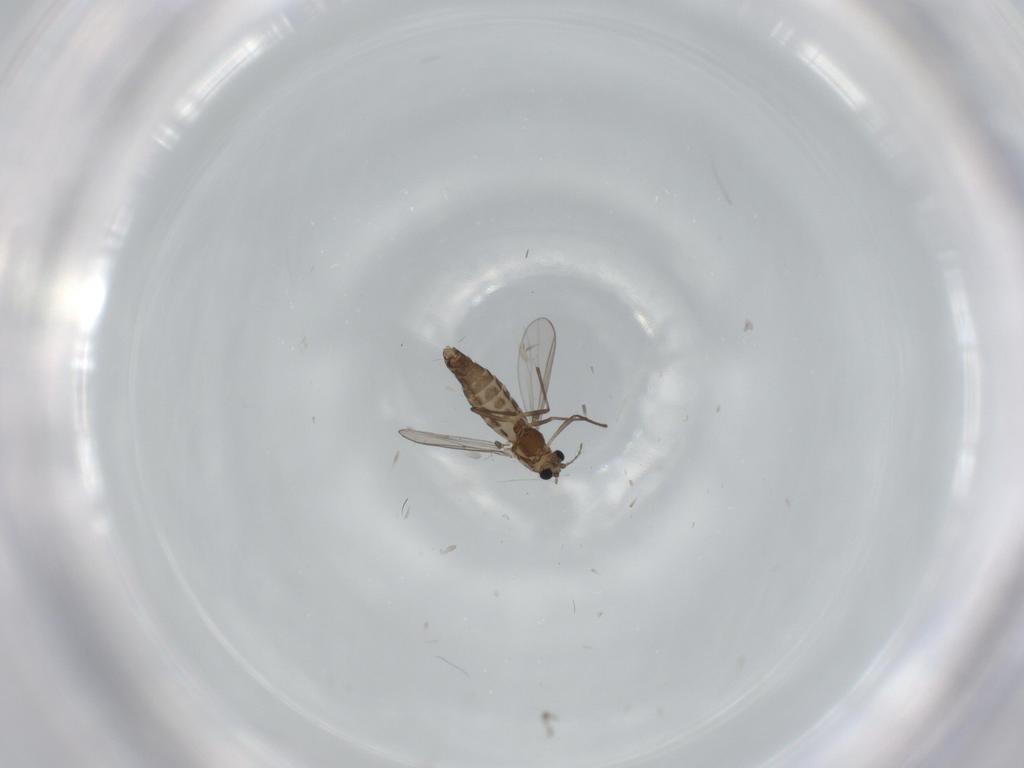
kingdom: Animalia
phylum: Arthropoda
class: Insecta
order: Diptera
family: Chironomidae
